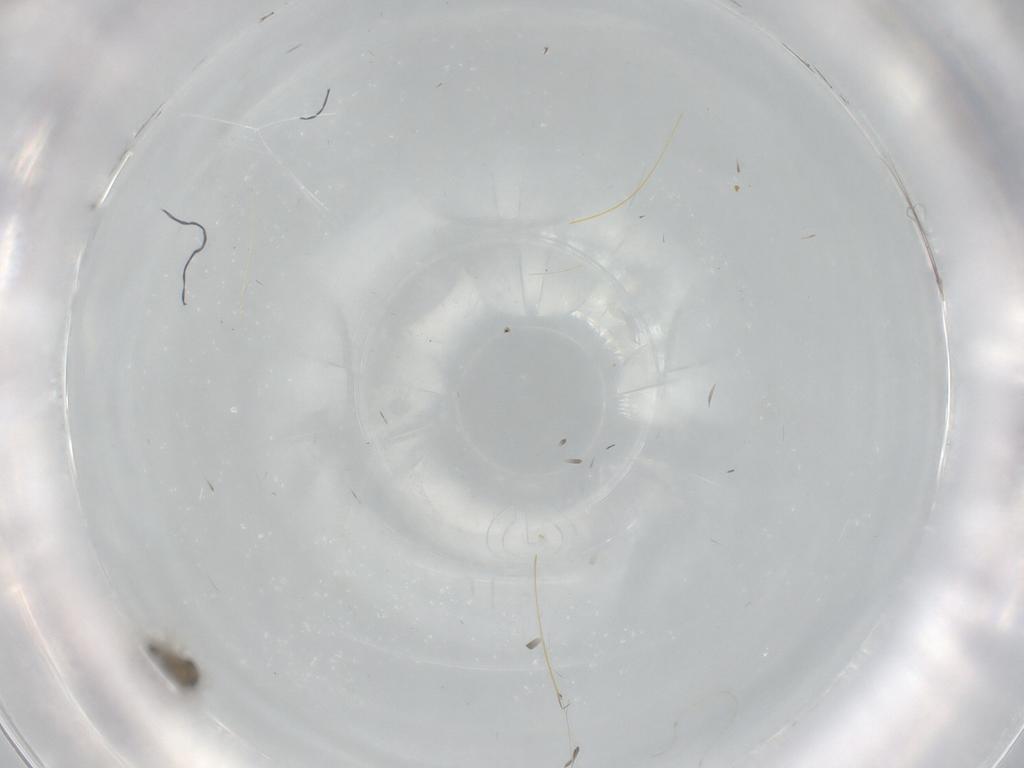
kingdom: Animalia
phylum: Arthropoda
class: Insecta
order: Diptera
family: Cecidomyiidae
